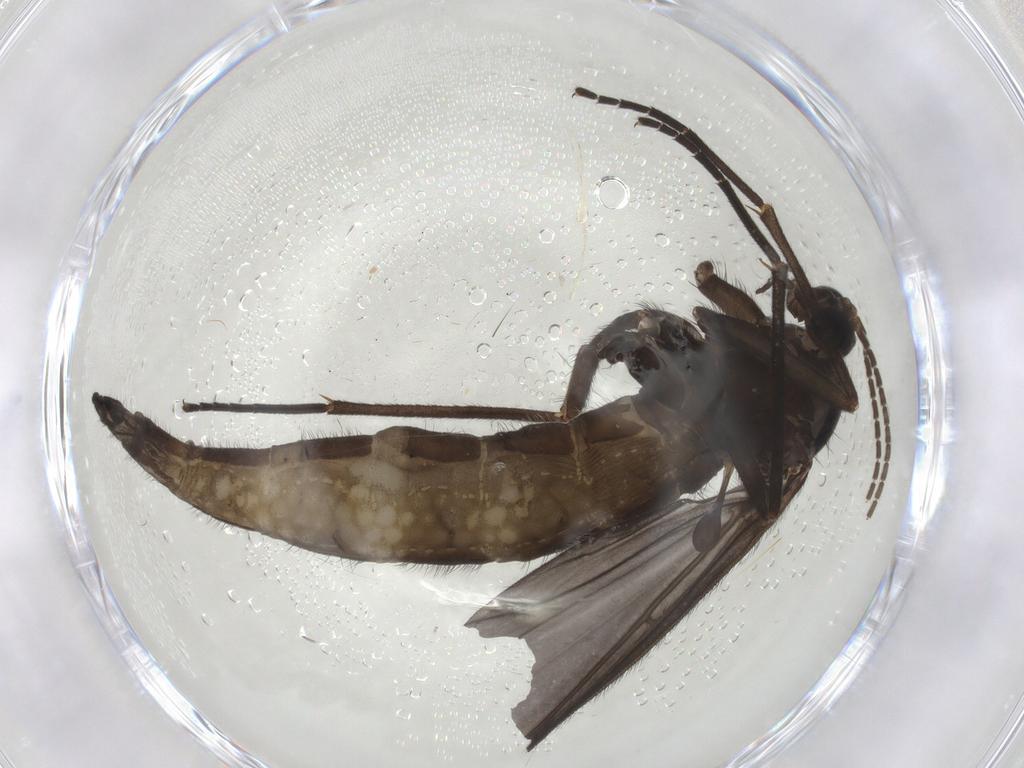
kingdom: Animalia
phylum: Arthropoda
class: Insecta
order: Diptera
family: Sciaridae
